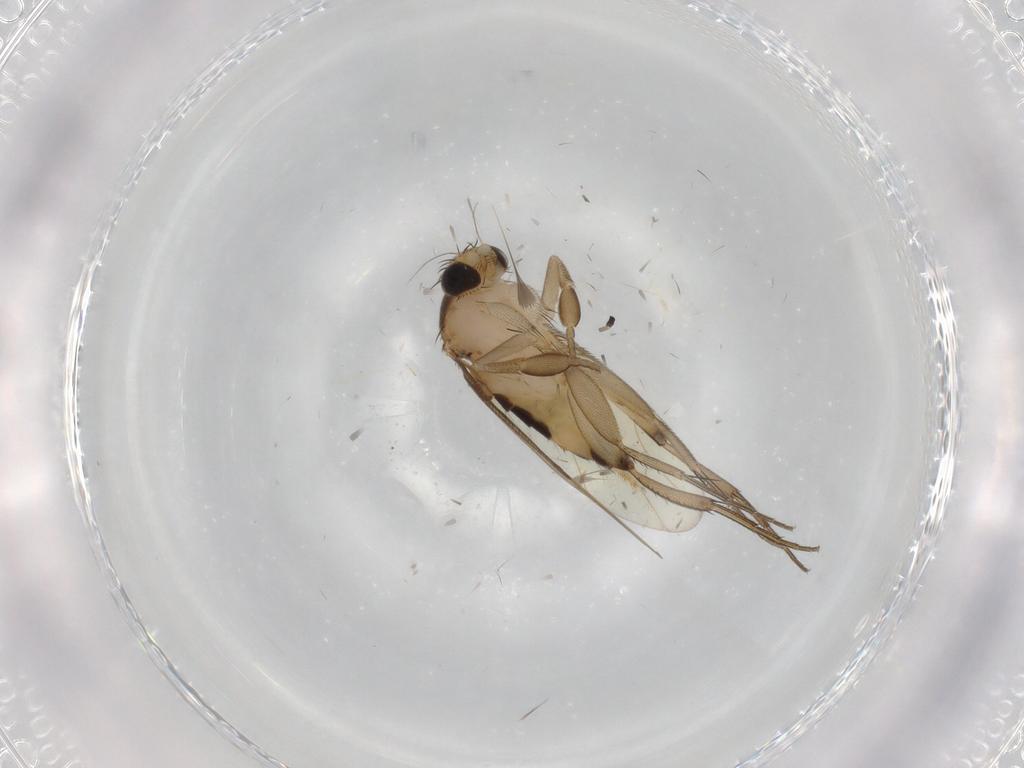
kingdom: Animalia
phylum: Arthropoda
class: Insecta
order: Diptera
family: Phoridae
